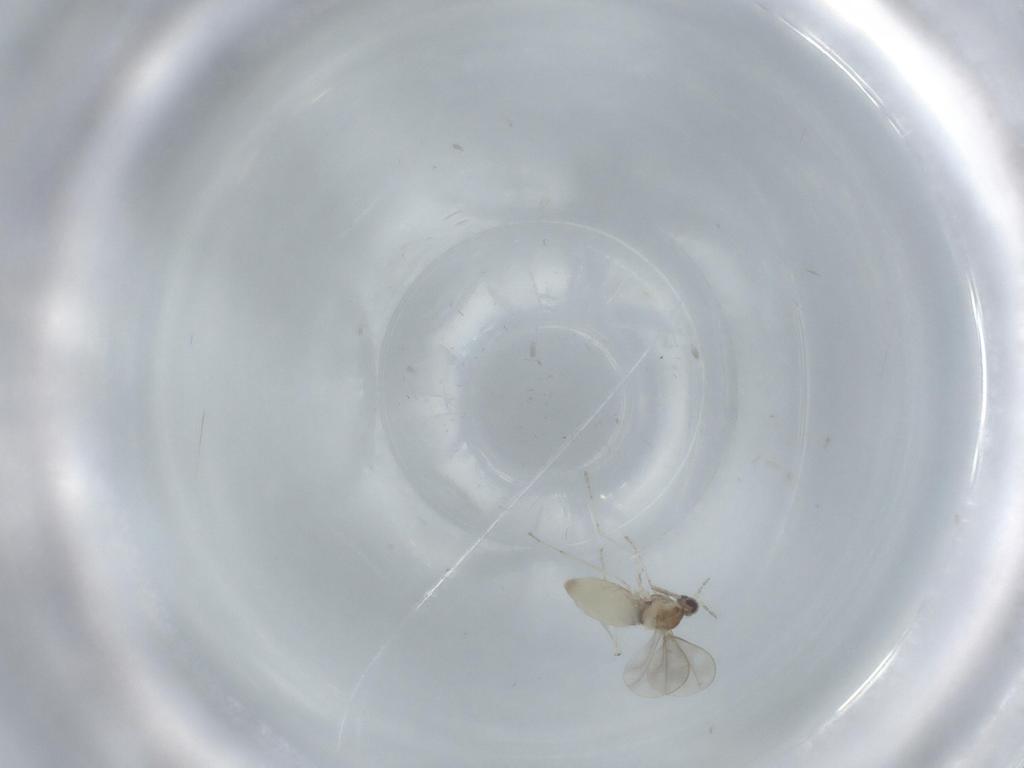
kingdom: Animalia
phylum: Arthropoda
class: Insecta
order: Diptera
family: Cecidomyiidae
